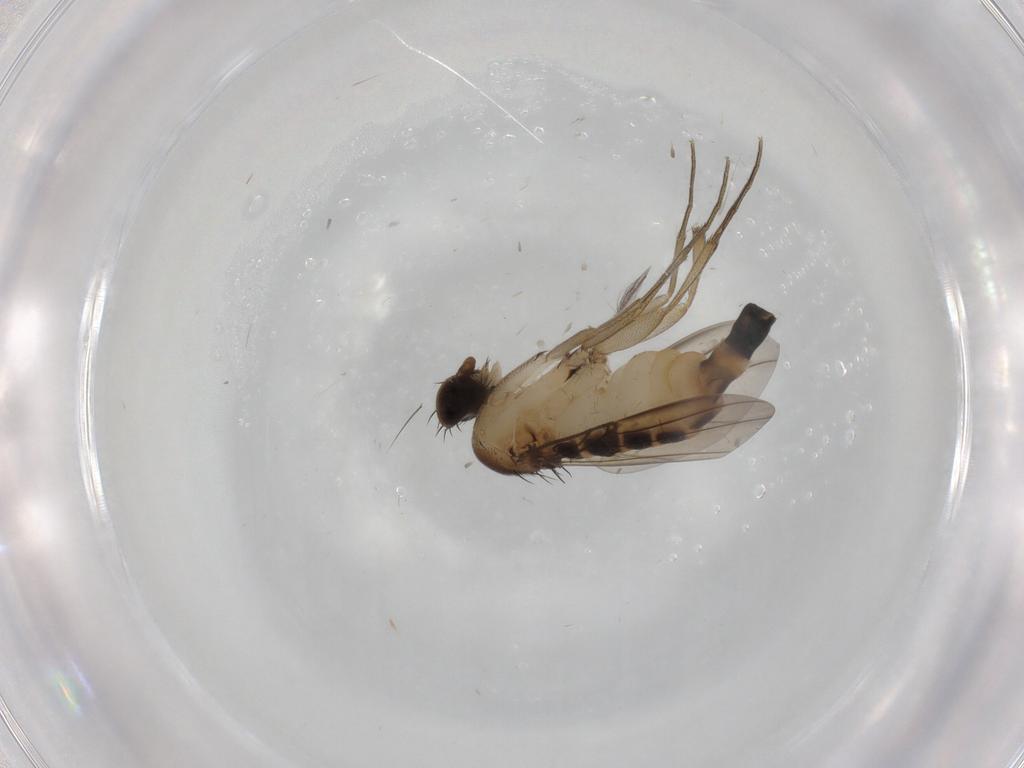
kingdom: Animalia
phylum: Arthropoda
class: Insecta
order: Diptera
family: Phoridae
